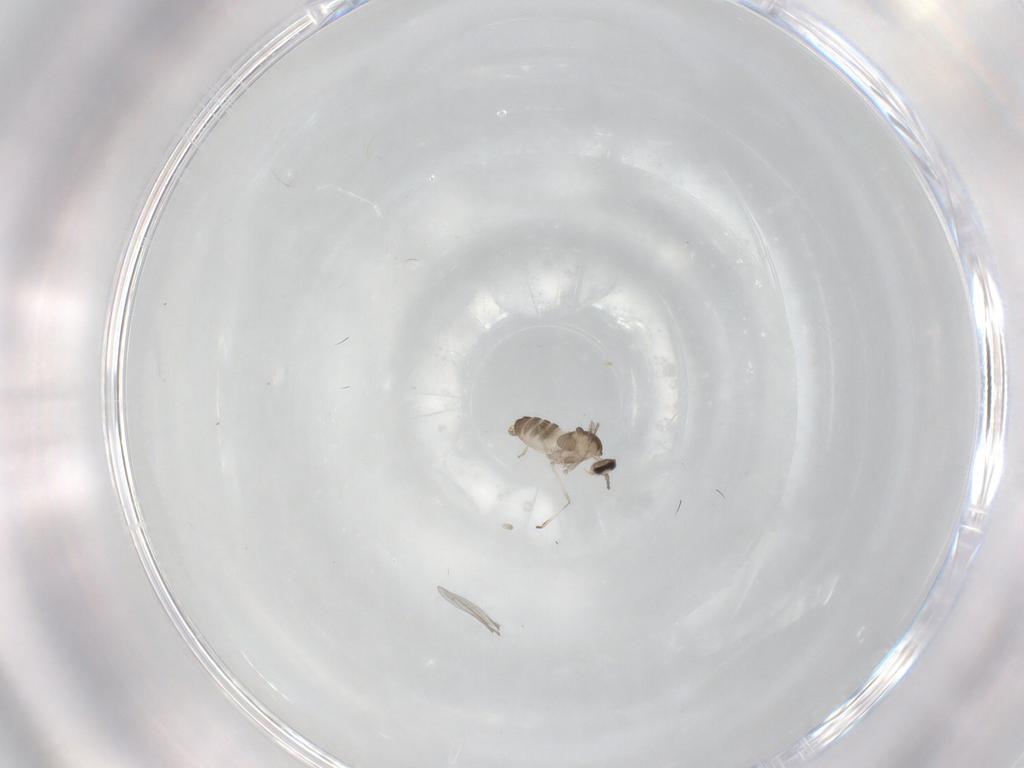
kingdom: Animalia
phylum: Arthropoda
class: Insecta
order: Diptera
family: Cecidomyiidae
